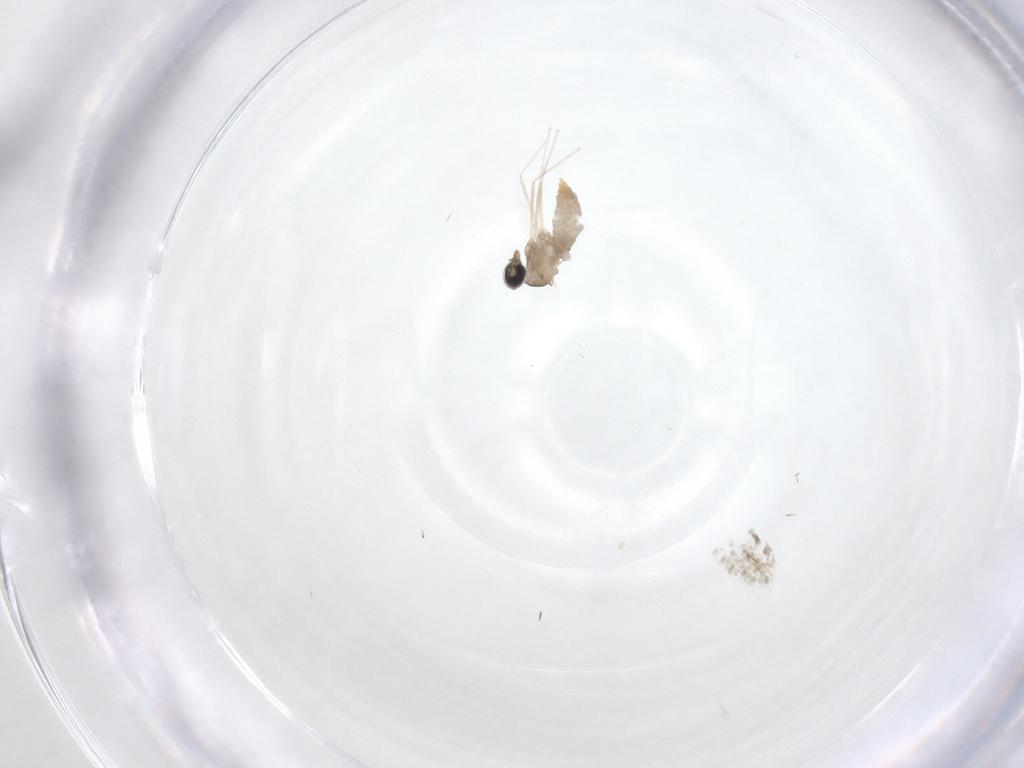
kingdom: Animalia
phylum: Arthropoda
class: Insecta
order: Diptera
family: Cecidomyiidae
